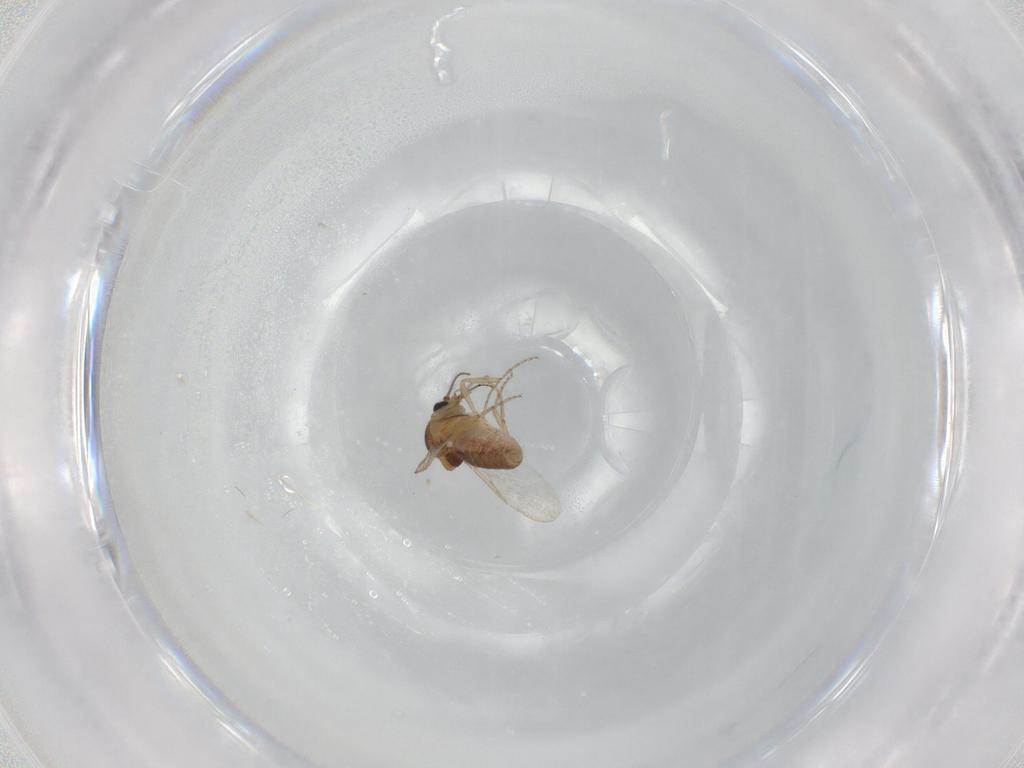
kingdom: Animalia
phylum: Arthropoda
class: Insecta
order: Diptera
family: Ceratopogonidae
